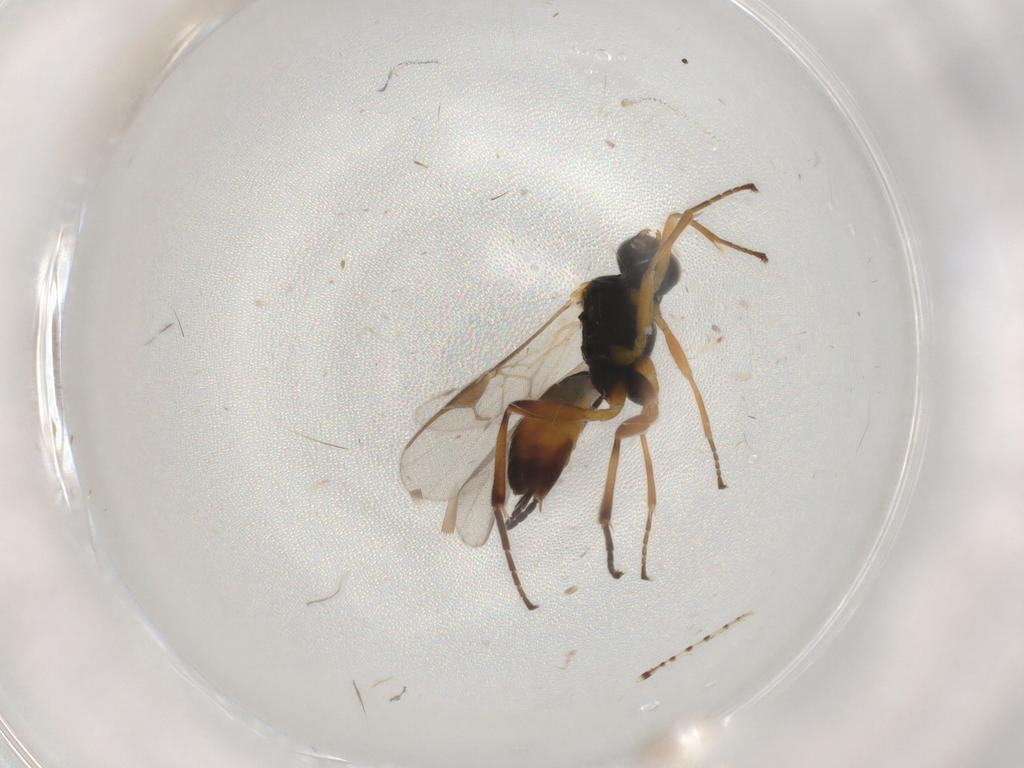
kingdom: Animalia
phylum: Arthropoda
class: Insecta
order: Hymenoptera
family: Braconidae
